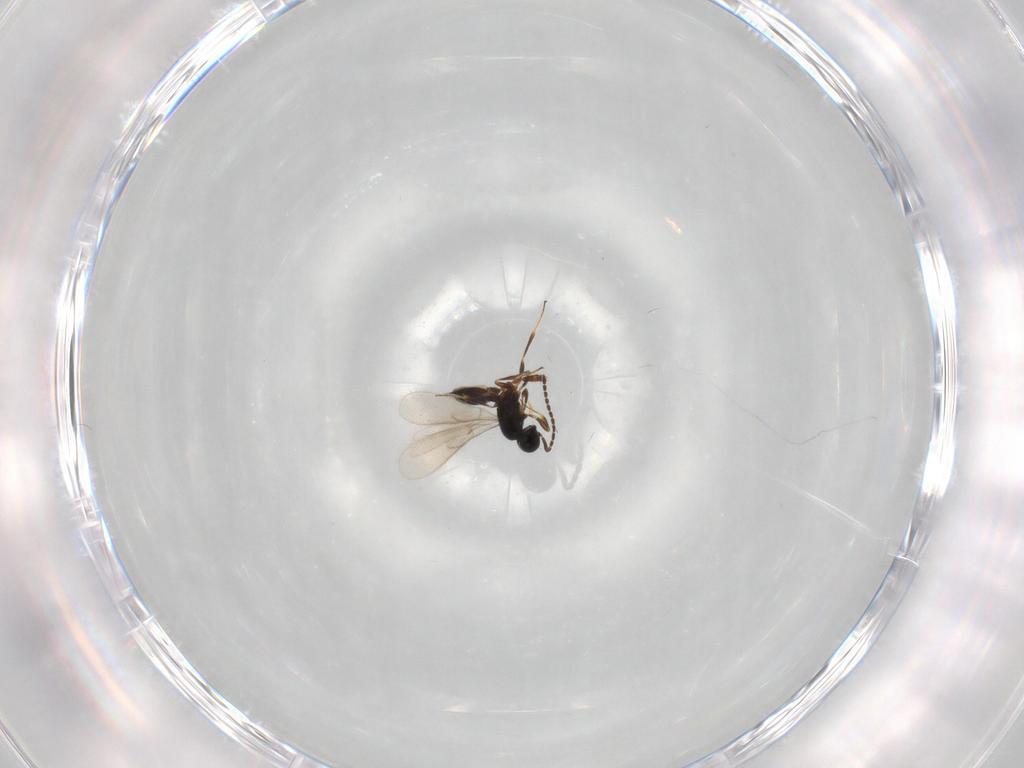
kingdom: Animalia
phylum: Arthropoda
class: Insecta
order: Hymenoptera
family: Scelionidae
